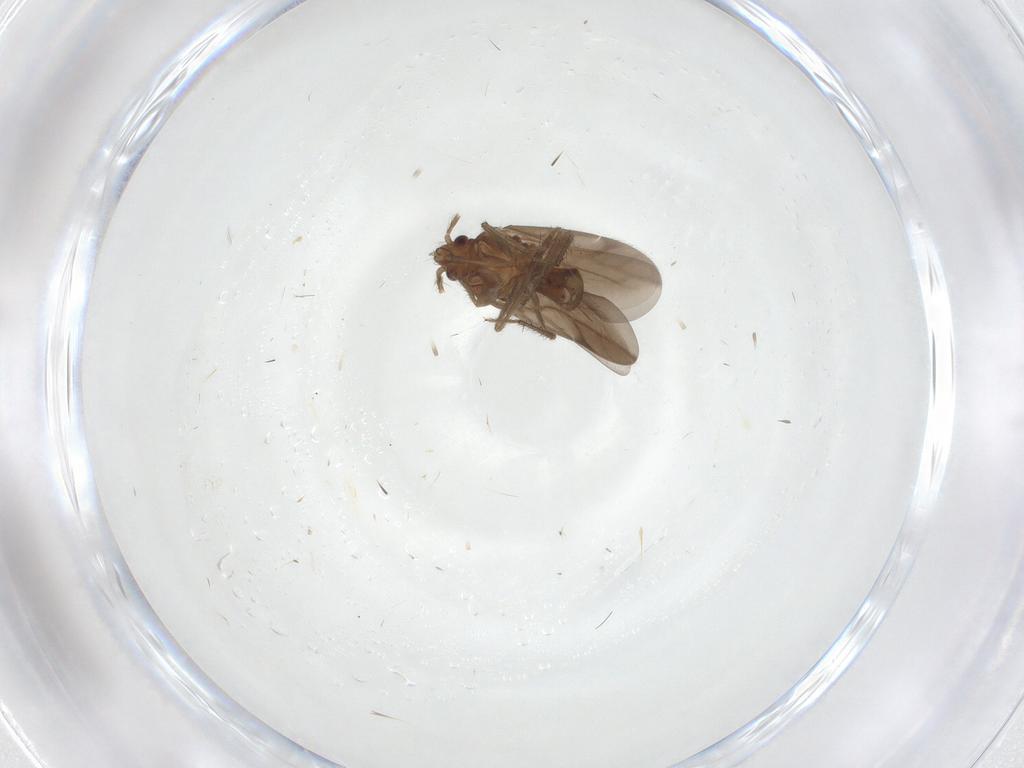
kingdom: Animalia
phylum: Arthropoda
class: Insecta
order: Hemiptera
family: Ceratocombidae
